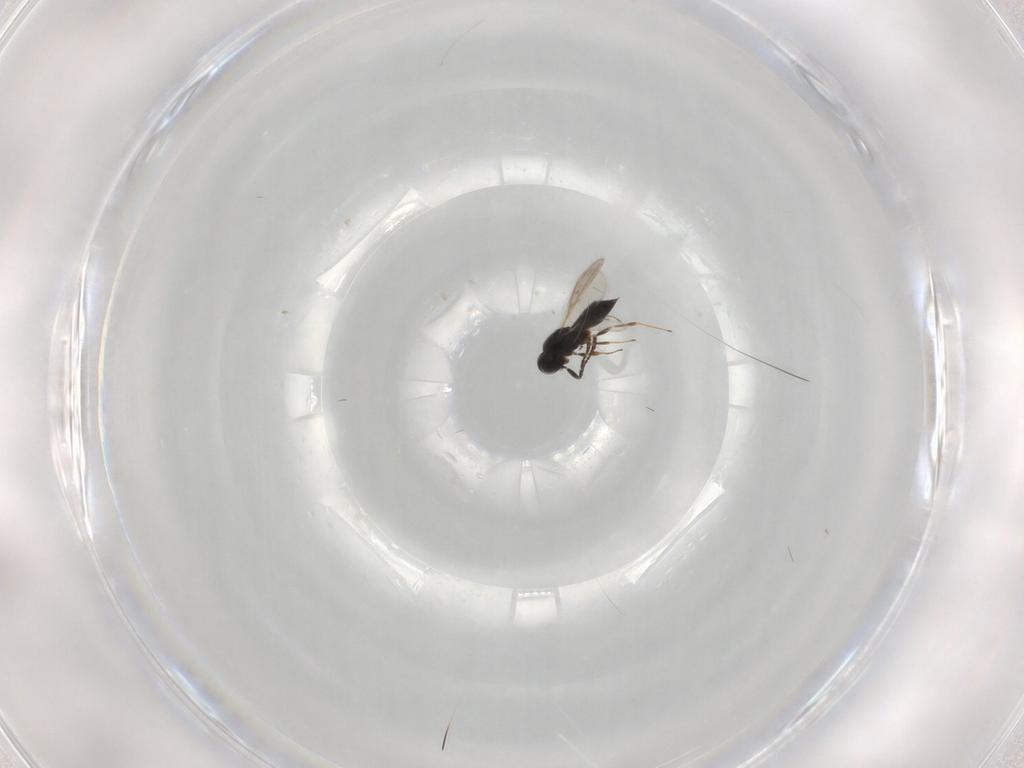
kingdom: Animalia
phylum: Arthropoda
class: Insecta
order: Hymenoptera
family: Scelionidae
